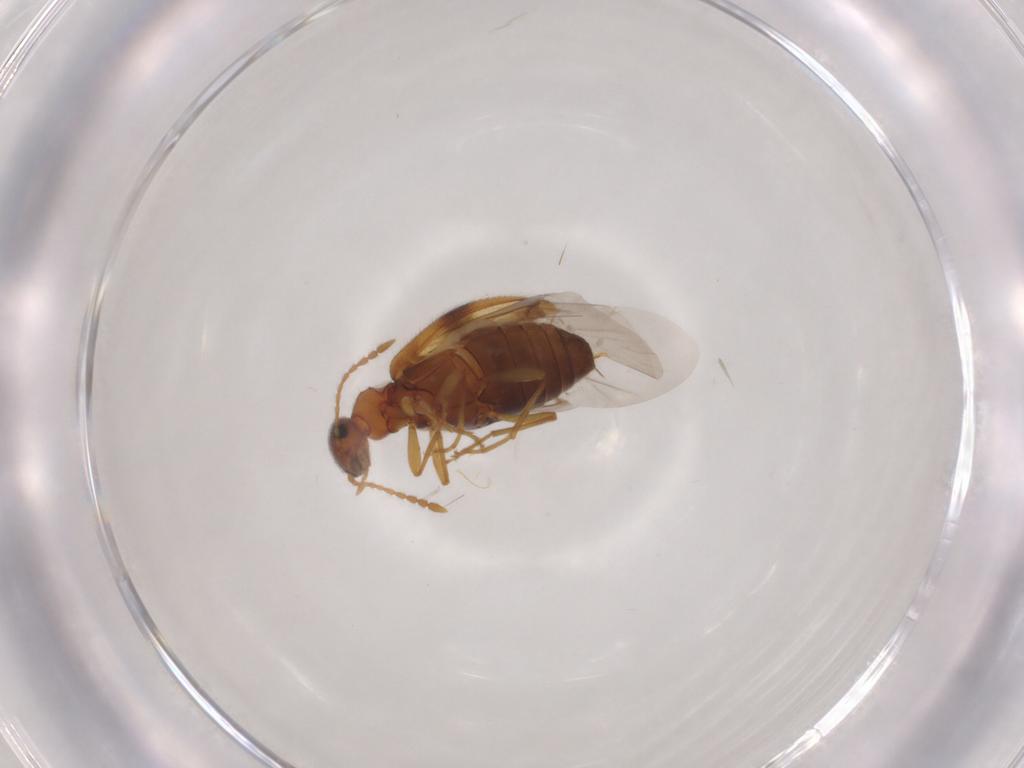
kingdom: Animalia
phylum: Arthropoda
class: Insecta
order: Coleoptera
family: Anthicidae
